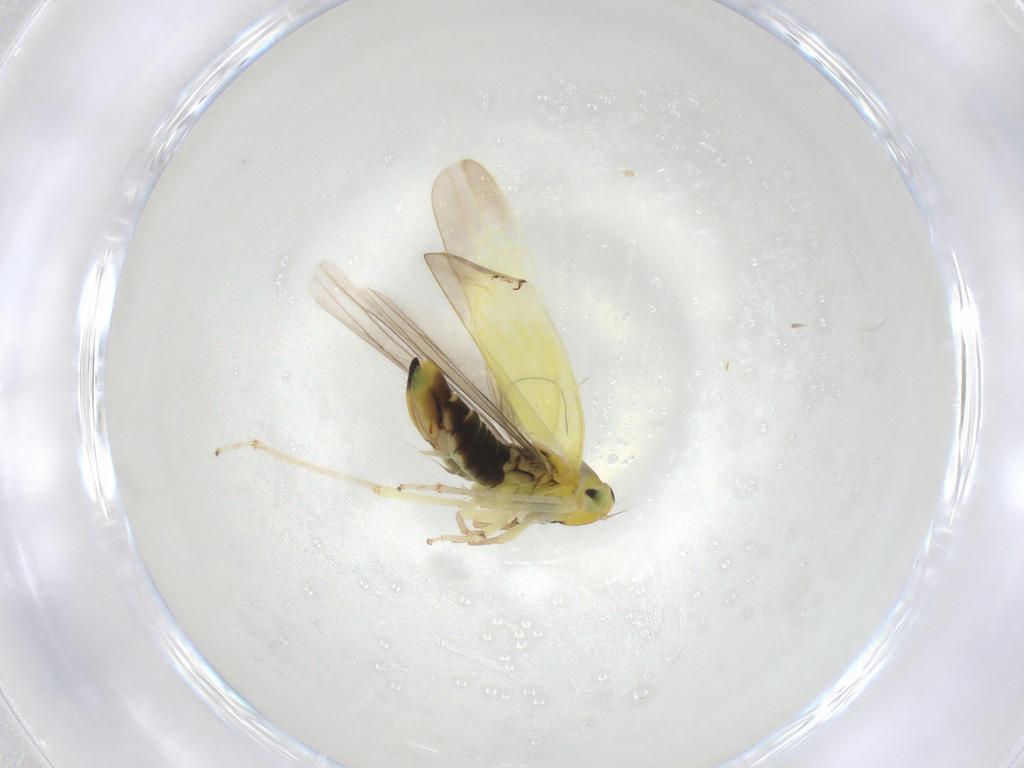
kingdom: Animalia
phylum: Arthropoda
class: Insecta
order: Hemiptera
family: Cicadellidae
